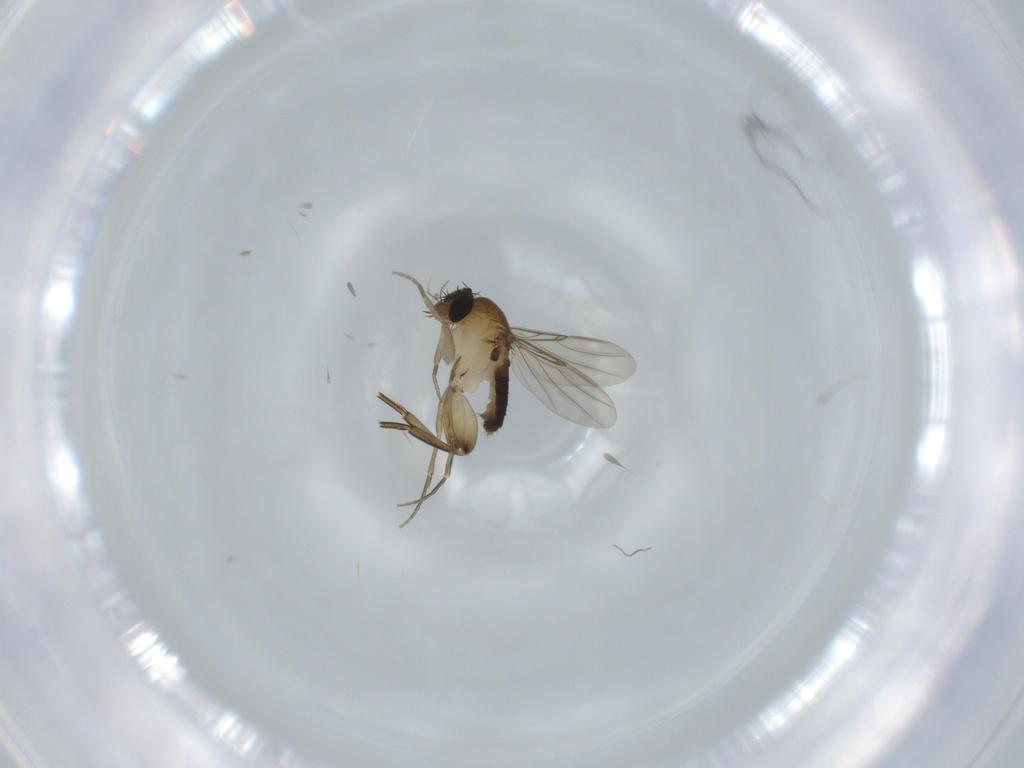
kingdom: Animalia
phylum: Arthropoda
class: Insecta
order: Diptera
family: Phoridae
